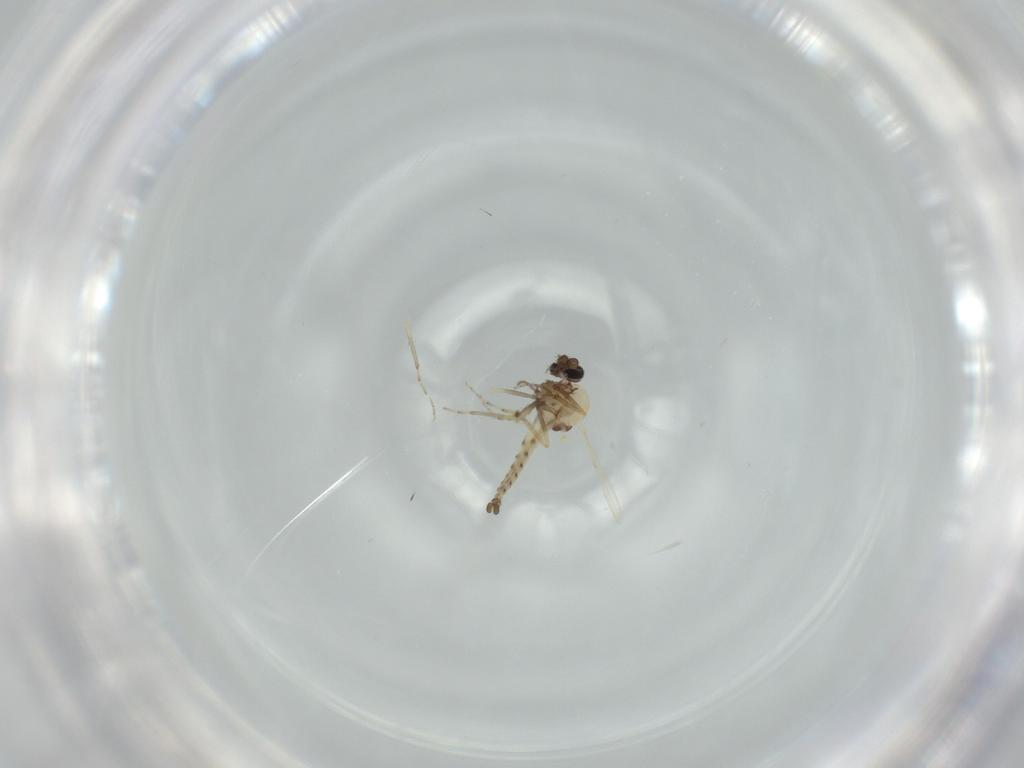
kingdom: Animalia
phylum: Arthropoda
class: Insecta
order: Diptera
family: Ceratopogonidae
